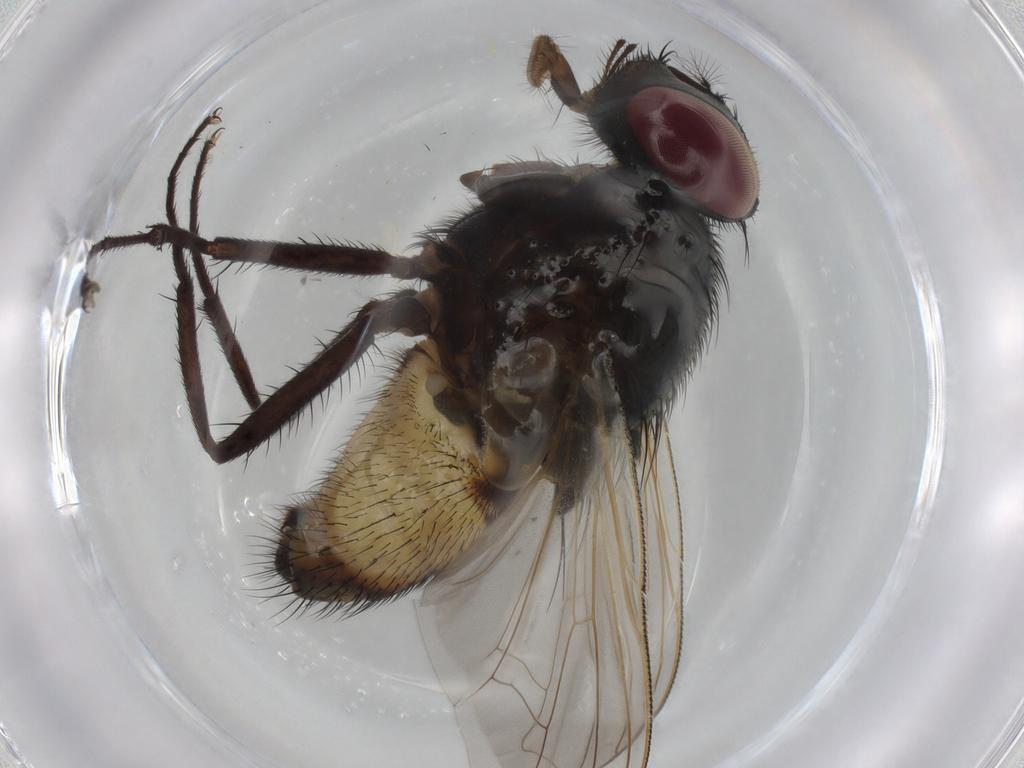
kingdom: Animalia
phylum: Arthropoda
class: Insecta
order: Diptera
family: Muscidae
